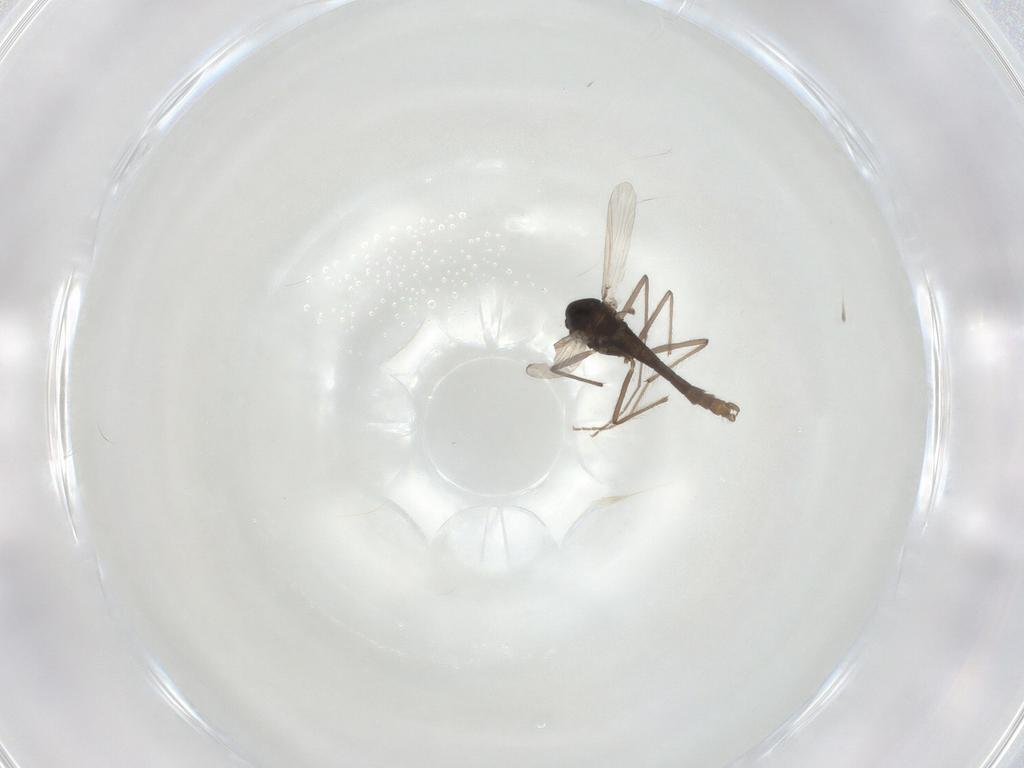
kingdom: Animalia
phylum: Arthropoda
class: Insecta
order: Diptera
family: Chironomidae
